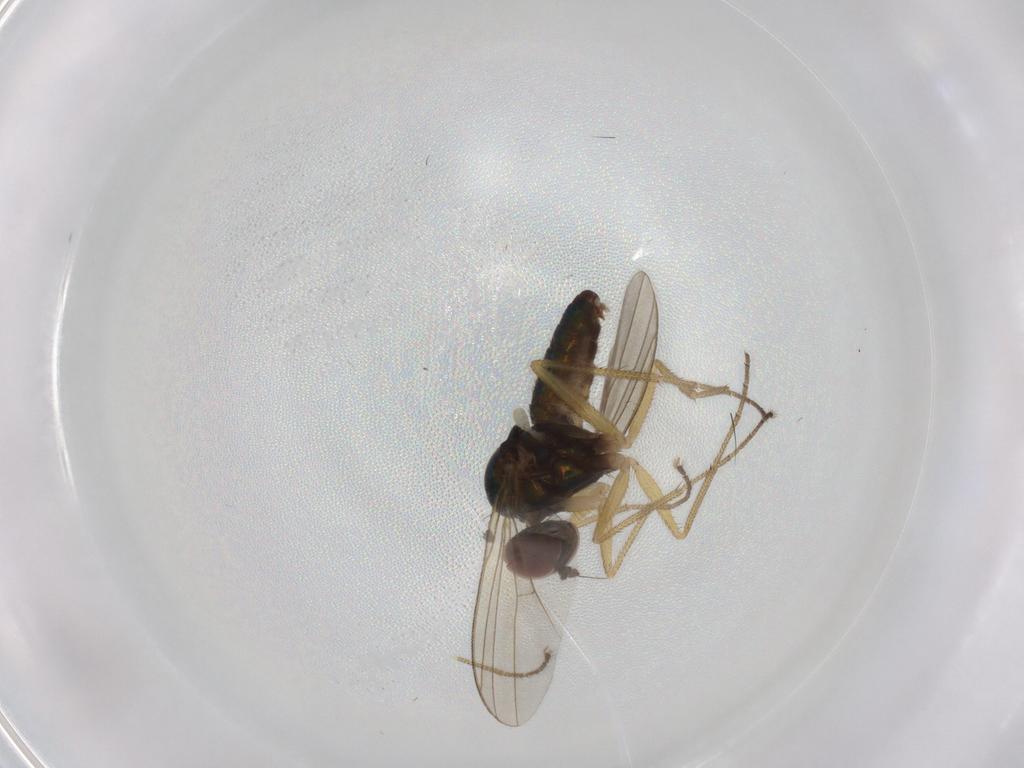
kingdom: Animalia
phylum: Arthropoda
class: Insecta
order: Diptera
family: Dolichopodidae
